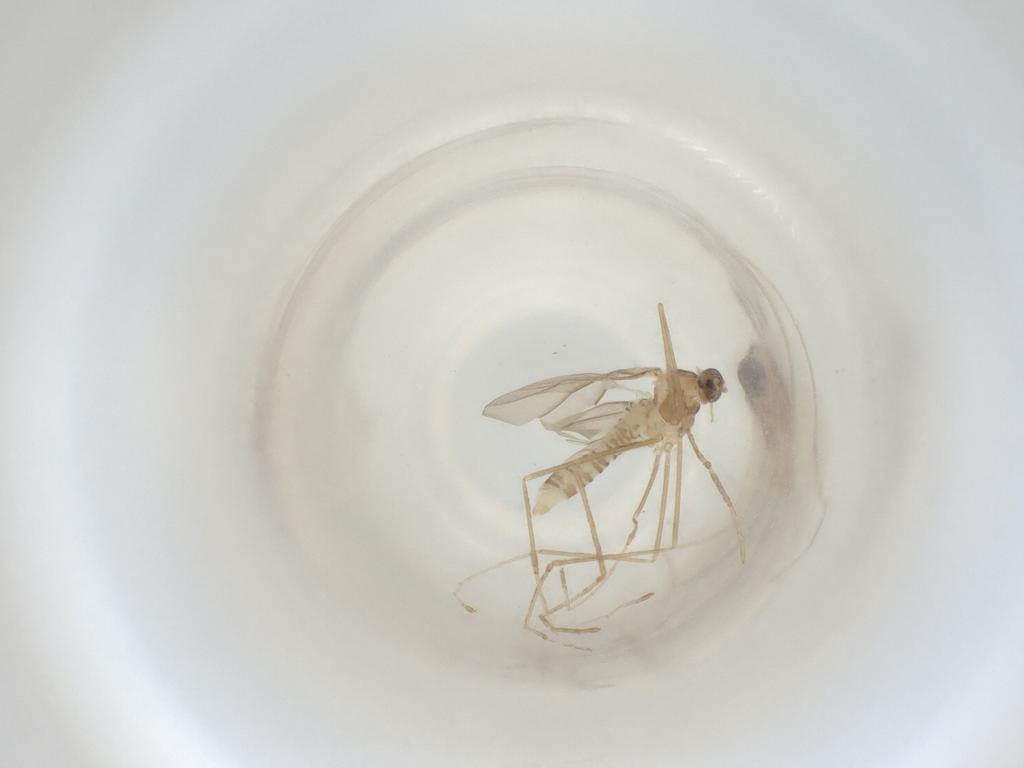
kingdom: Animalia
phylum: Arthropoda
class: Insecta
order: Diptera
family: Cecidomyiidae
